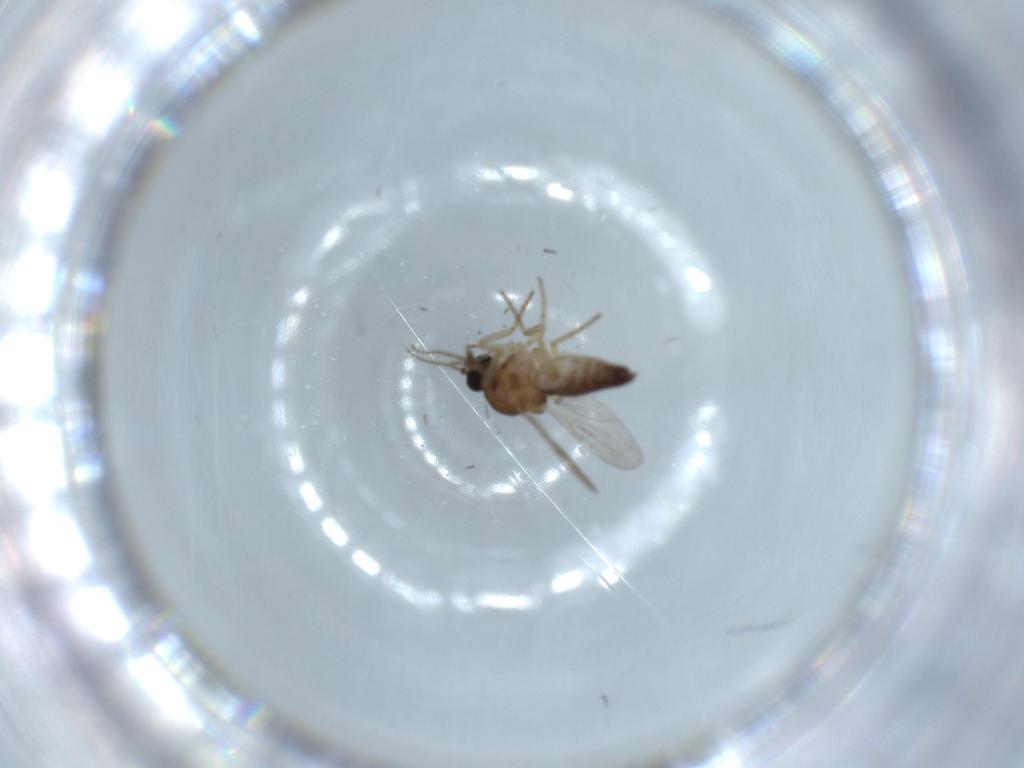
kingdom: Animalia
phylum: Arthropoda
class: Insecta
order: Diptera
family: Ceratopogonidae
